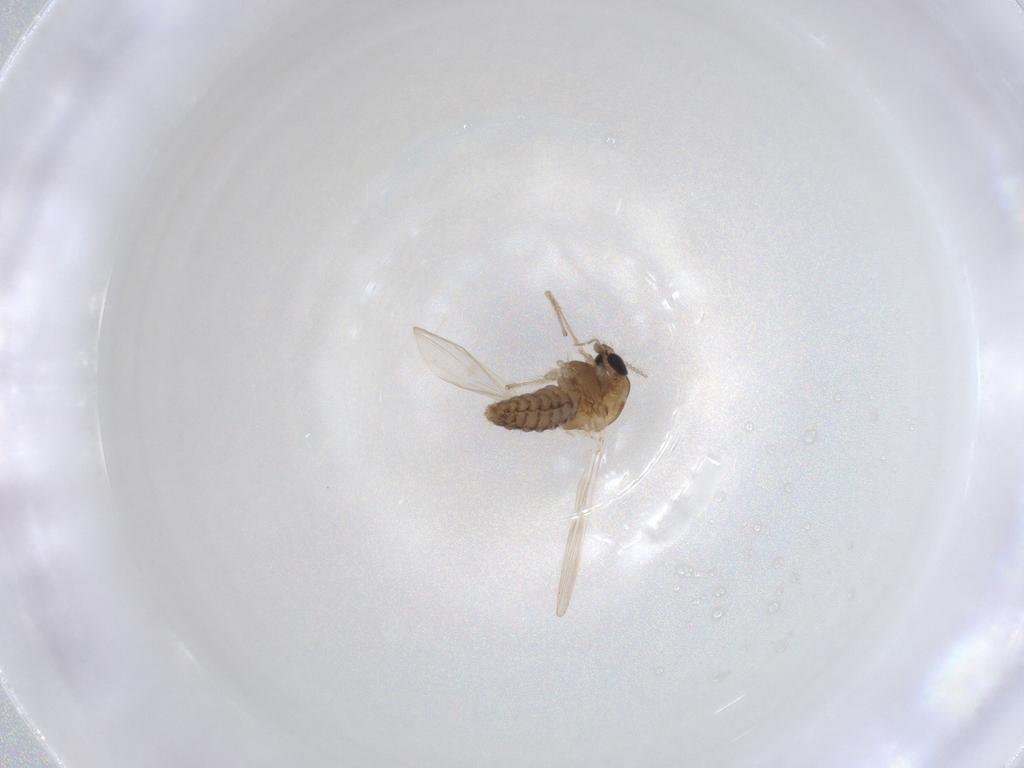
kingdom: Animalia
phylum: Arthropoda
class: Insecta
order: Diptera
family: Chironomidae
